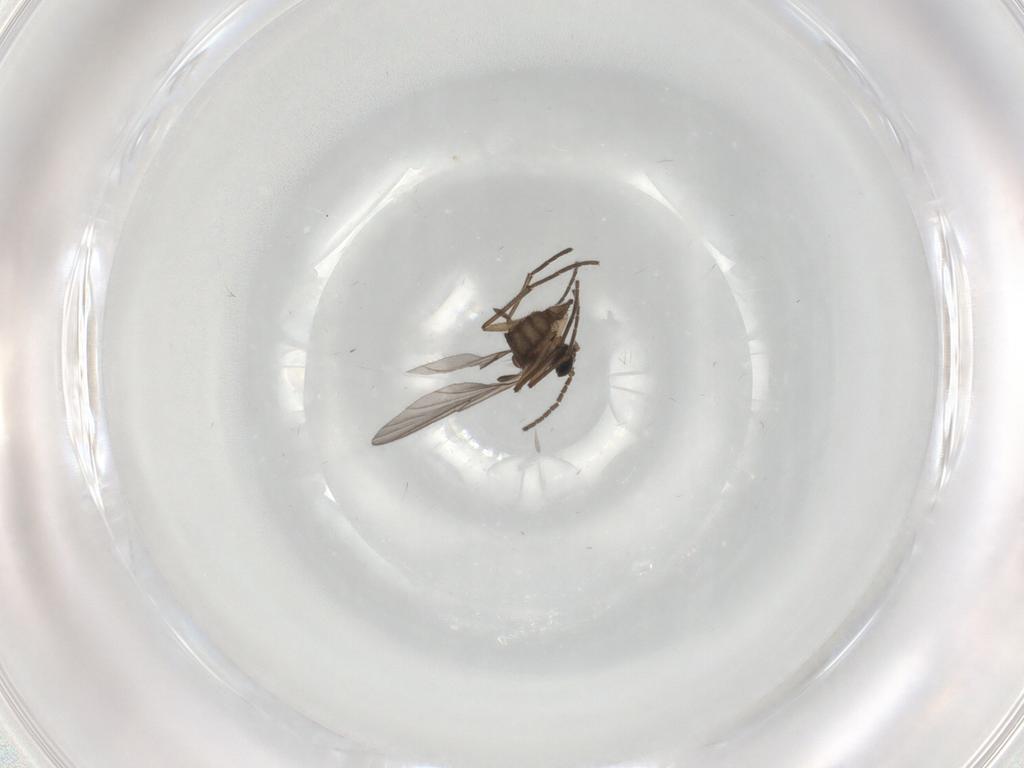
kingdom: Animalia
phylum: Arthropoda
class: Insecta
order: Diptera
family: Sciaridae
